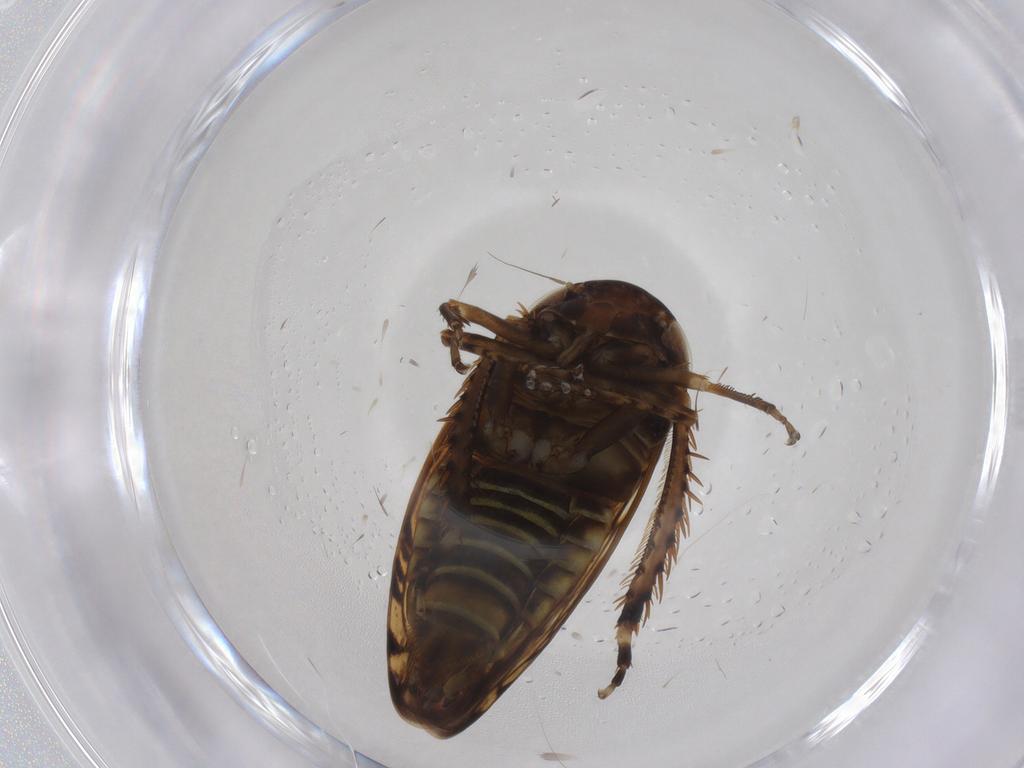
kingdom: Animalia
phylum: Arthropoda
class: Insecta
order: Hemiptera
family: Cicadellidae
